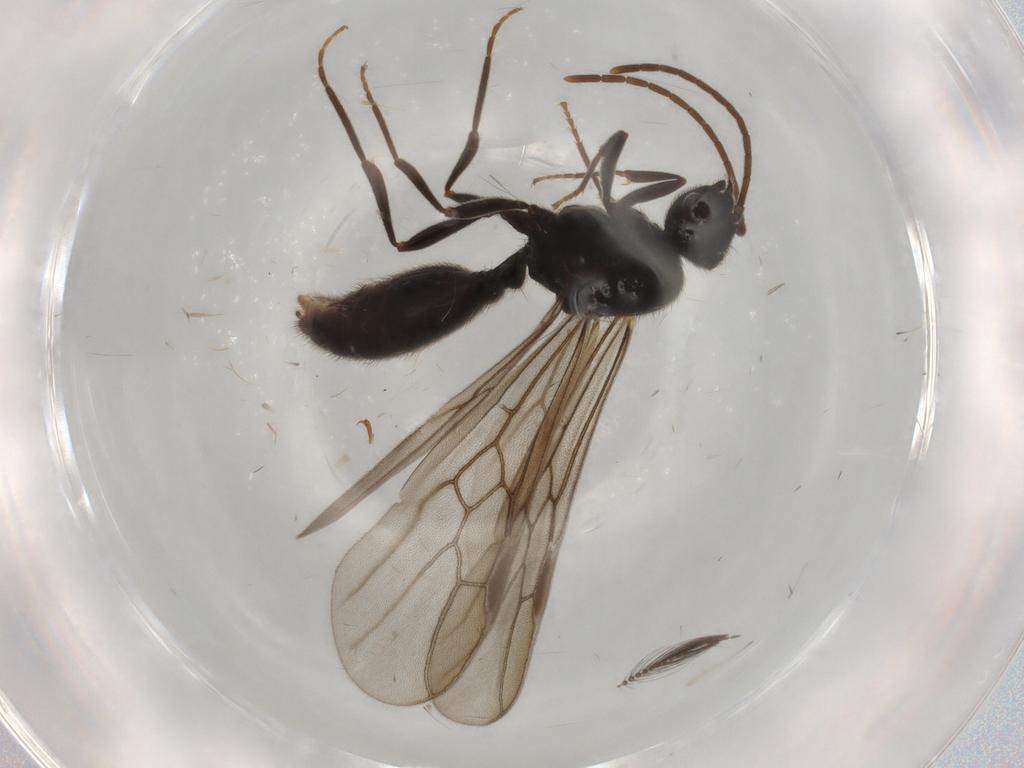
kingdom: Animalia
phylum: Arthropoda
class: Insecta
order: Hymenoptera
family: Formicidae
